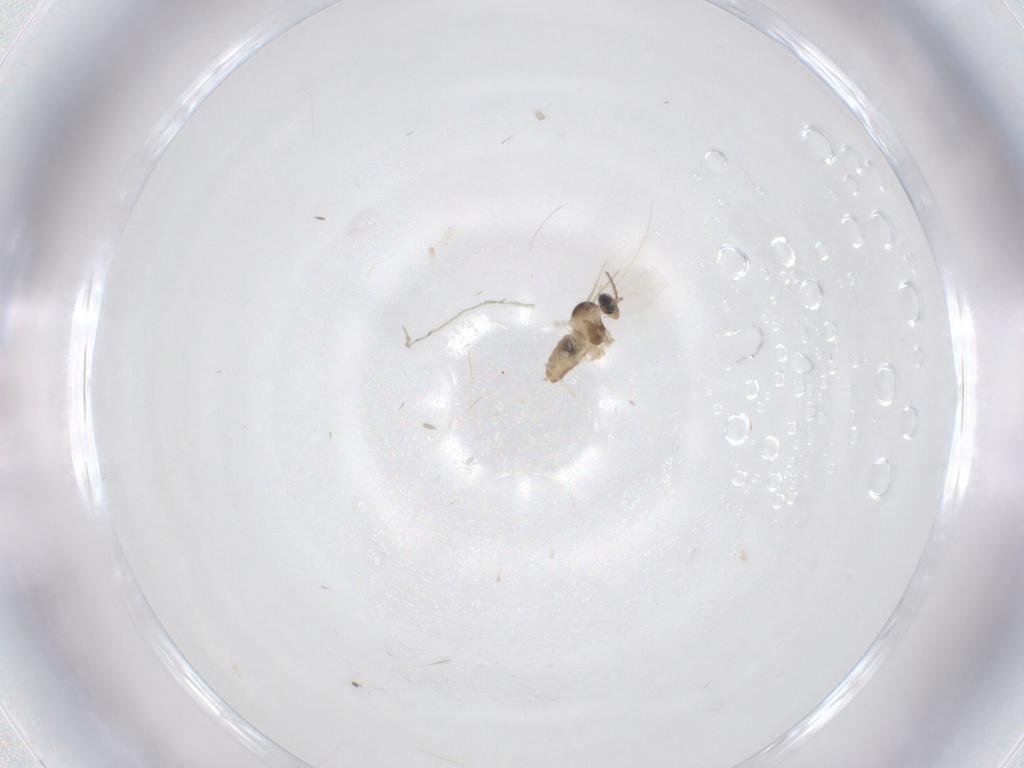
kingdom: Animalia
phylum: Arthropoda
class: Insecta
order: Diptera
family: Cecidomyiidae
